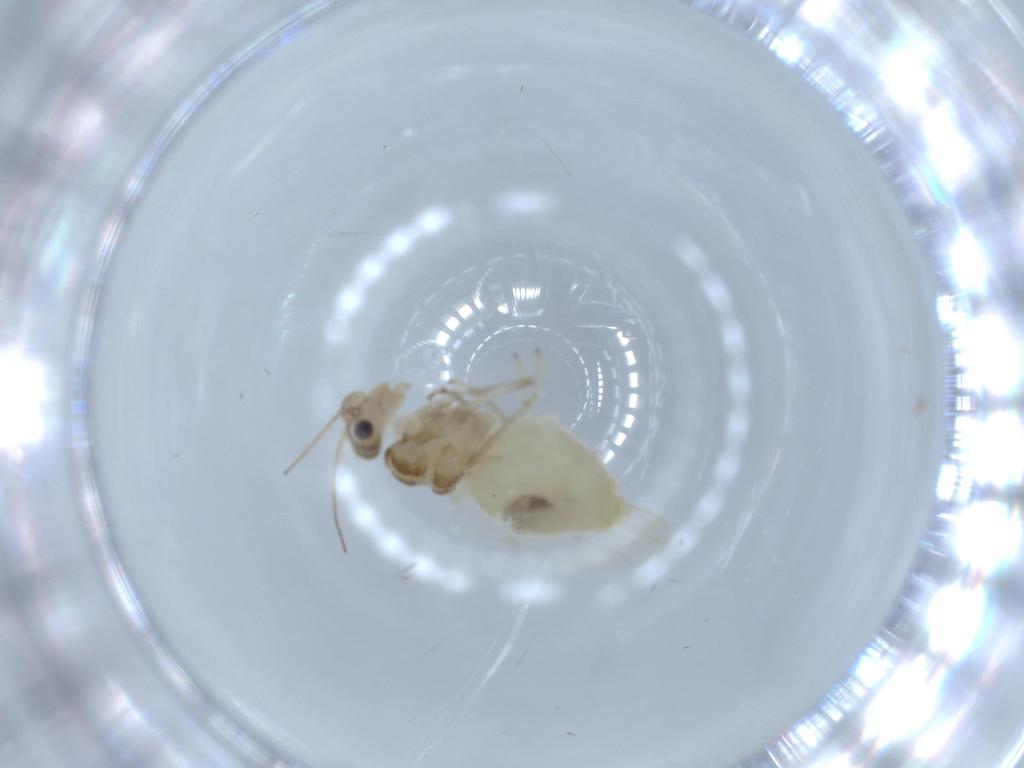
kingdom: Animalia
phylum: Arthropoda
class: Insecta
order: Psocodea
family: Caeciliusidae
